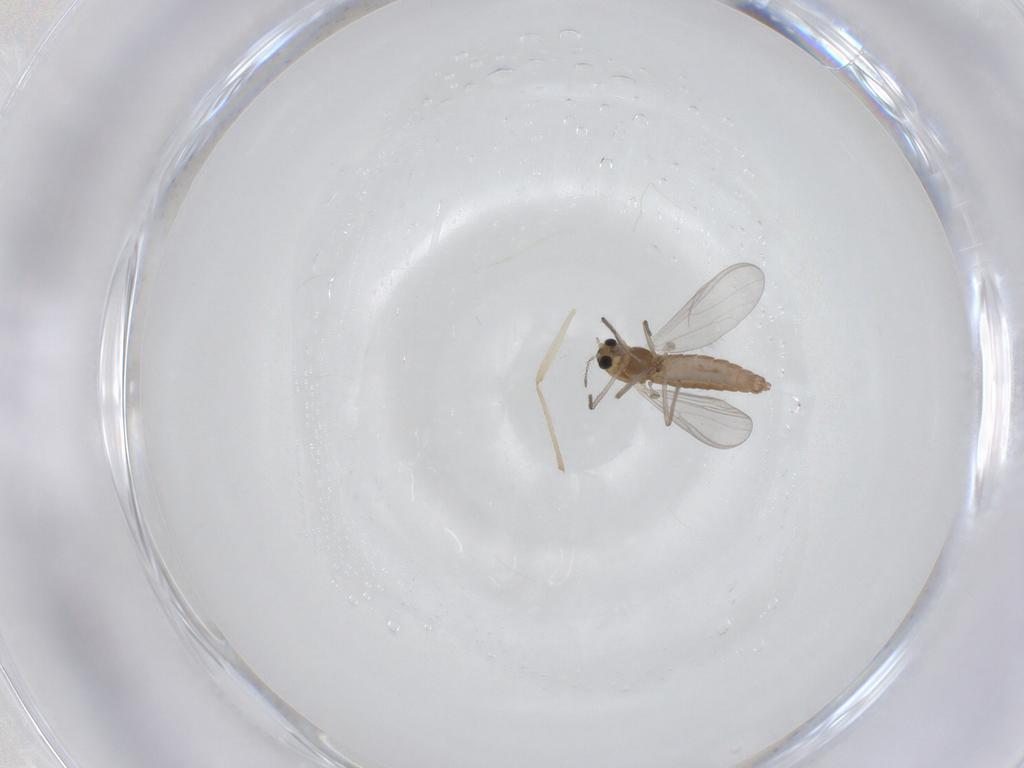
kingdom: Animalia
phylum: Arthropoda
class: Insecta
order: Diptera
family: Chironomidae
